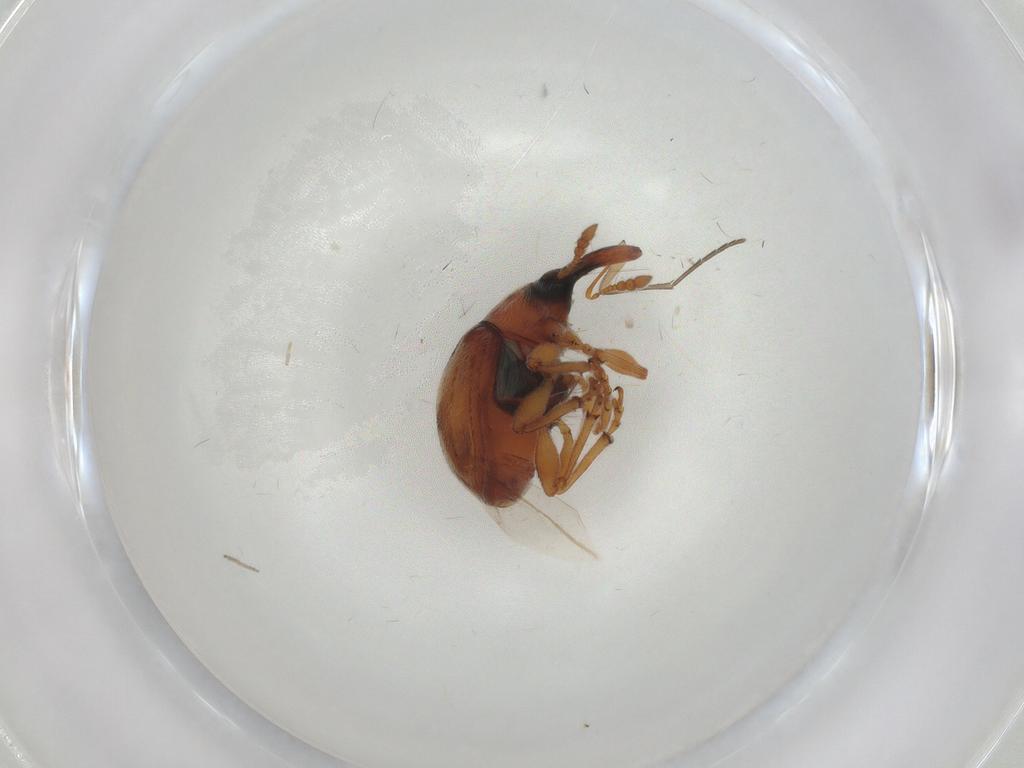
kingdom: Animalia
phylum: Arthropoda
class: Insecta
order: Coleoptera
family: Brentidae
